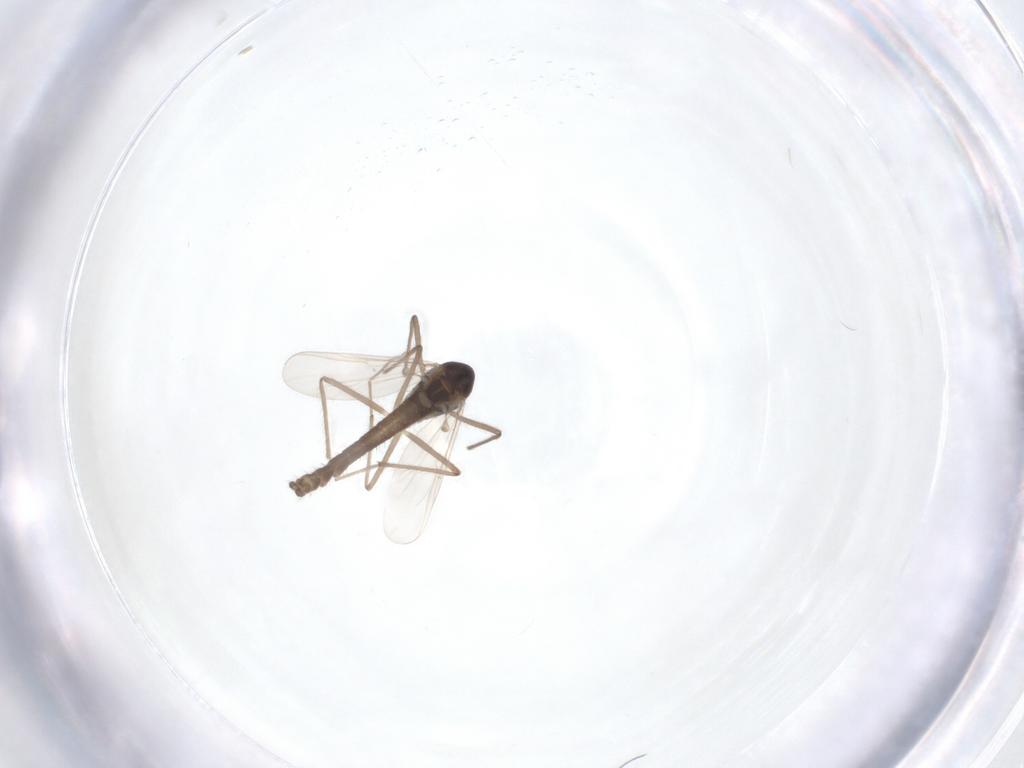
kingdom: Animalia
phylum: Arthropoda
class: Insecta
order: Diptera
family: Chironomidae
